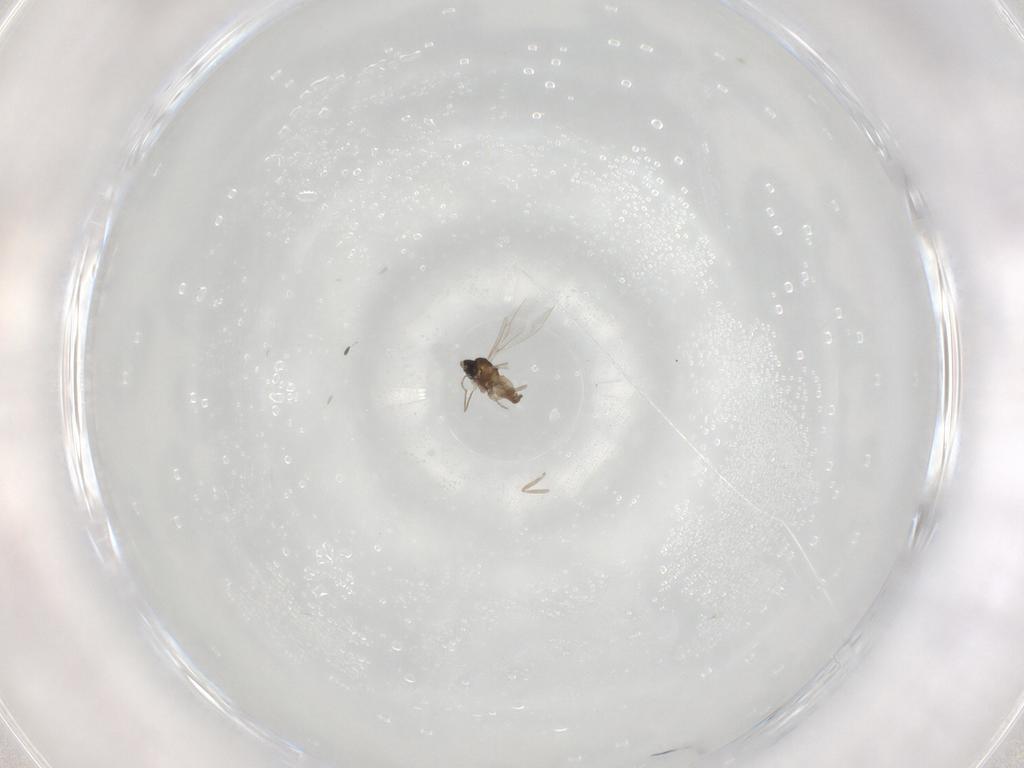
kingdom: Animalia
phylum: Arthropoda
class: Insecta
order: Diptera
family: Cecidomyiidae
